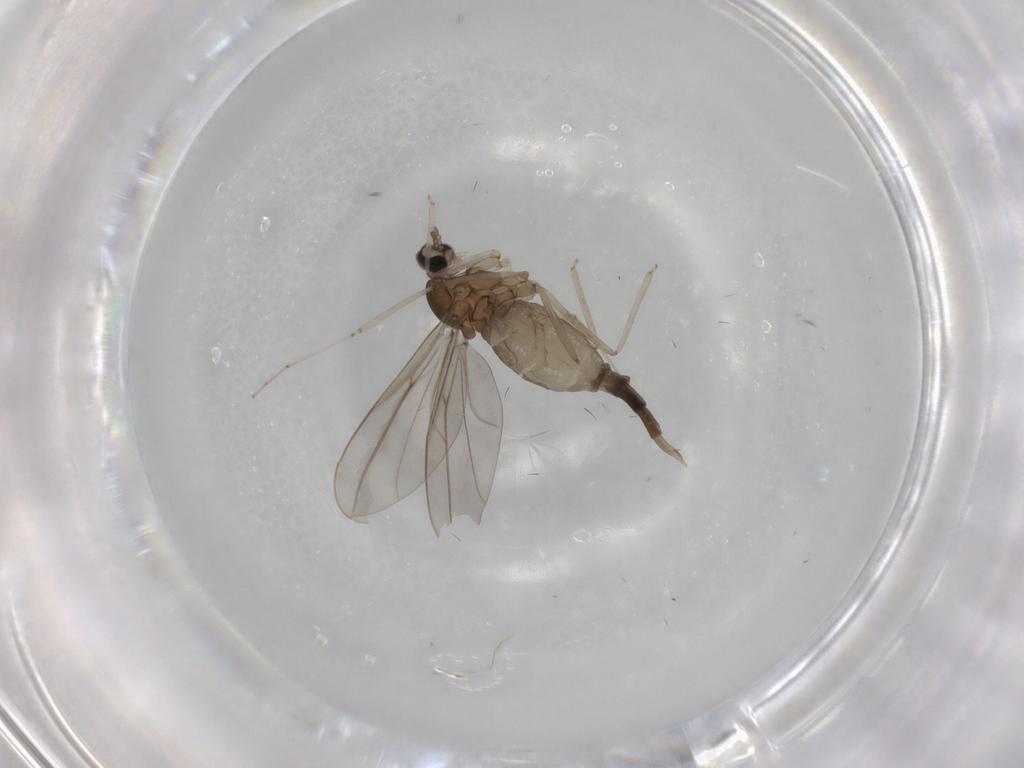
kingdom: Animalia
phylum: Arthropoda
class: Insecta
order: Diptera
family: Cecidomyiidae
